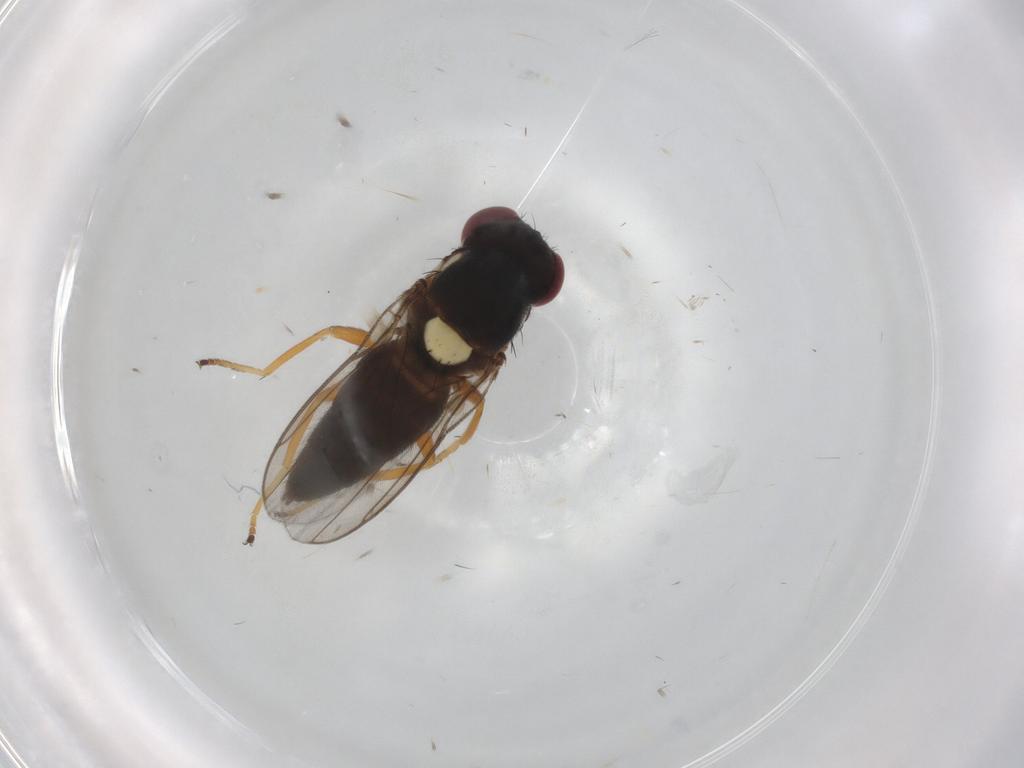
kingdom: Animalia
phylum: Arthropoda
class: Insecta
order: Diptera
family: Chloropidae
